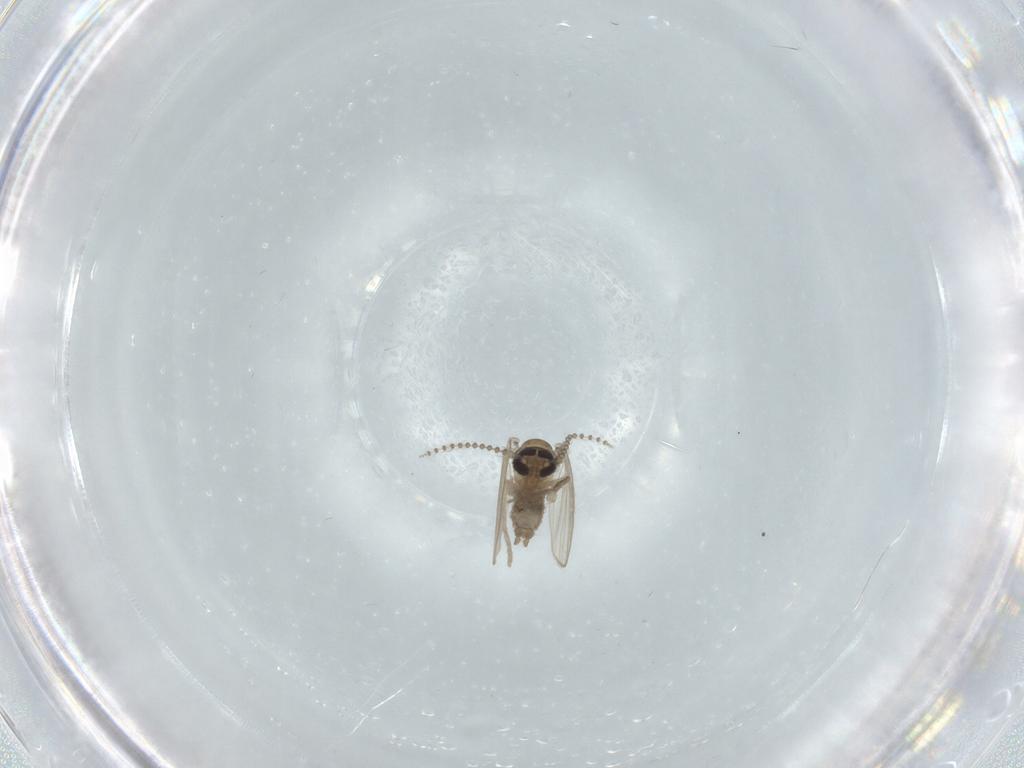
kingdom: Animalia
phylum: Arthropoda
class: Insecta
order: Diptera
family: Psychodidae
